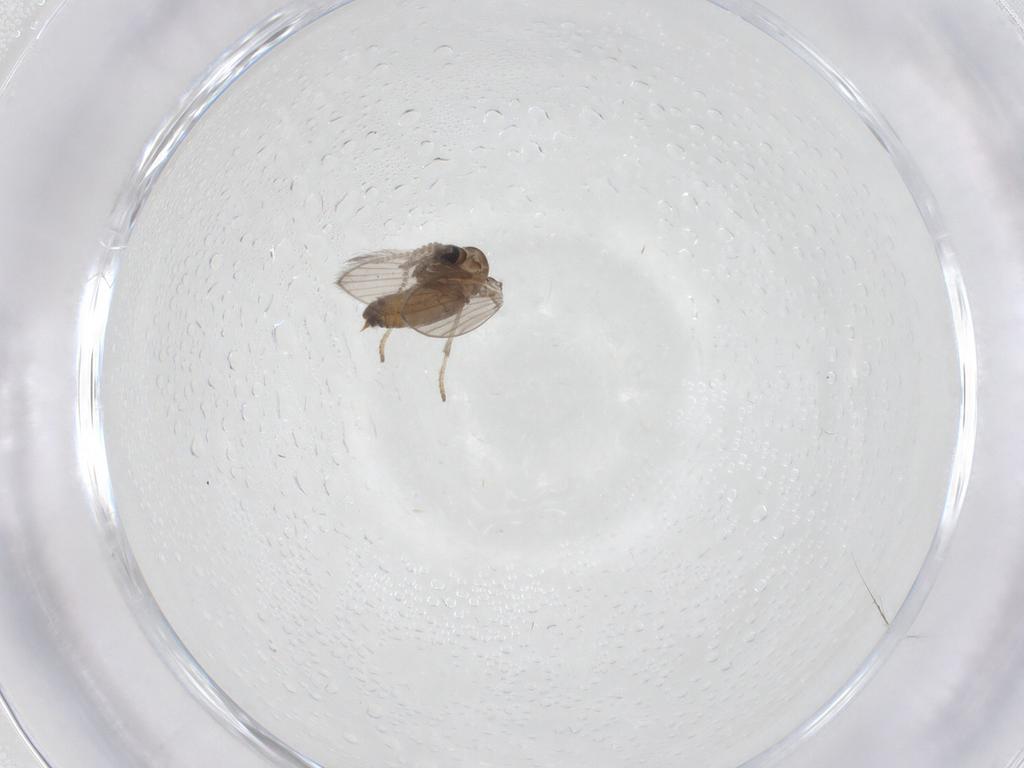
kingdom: Animalia
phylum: Arthropoda
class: Insecta
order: Diptera
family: Psychodidae
